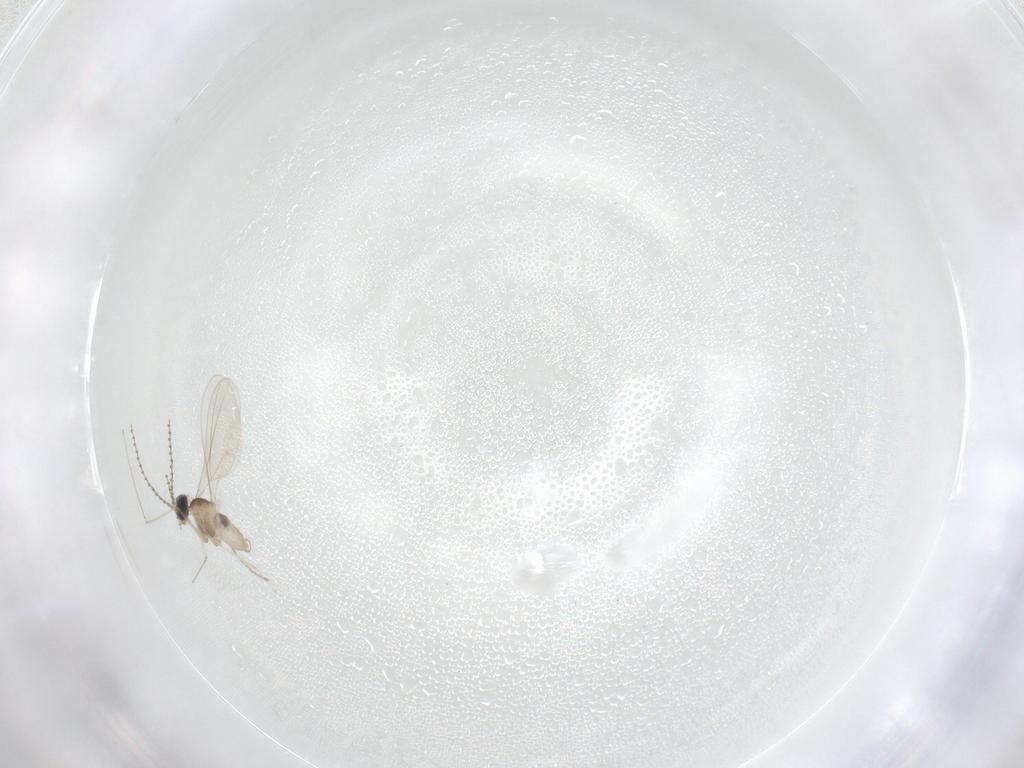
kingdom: Animalia
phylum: Arthropoda
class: Insecta
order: Diptera
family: Cecidomyiidae
